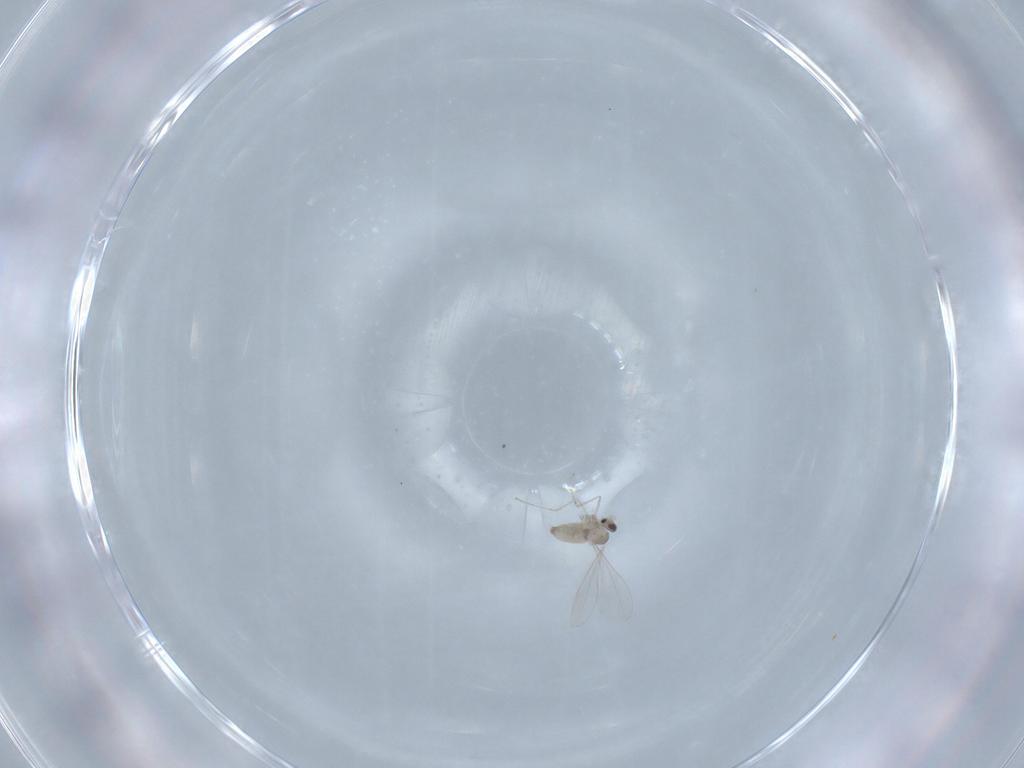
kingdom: Animalia
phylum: Arthropoda
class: Insecta
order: Diptera
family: Cecidomyiidae
